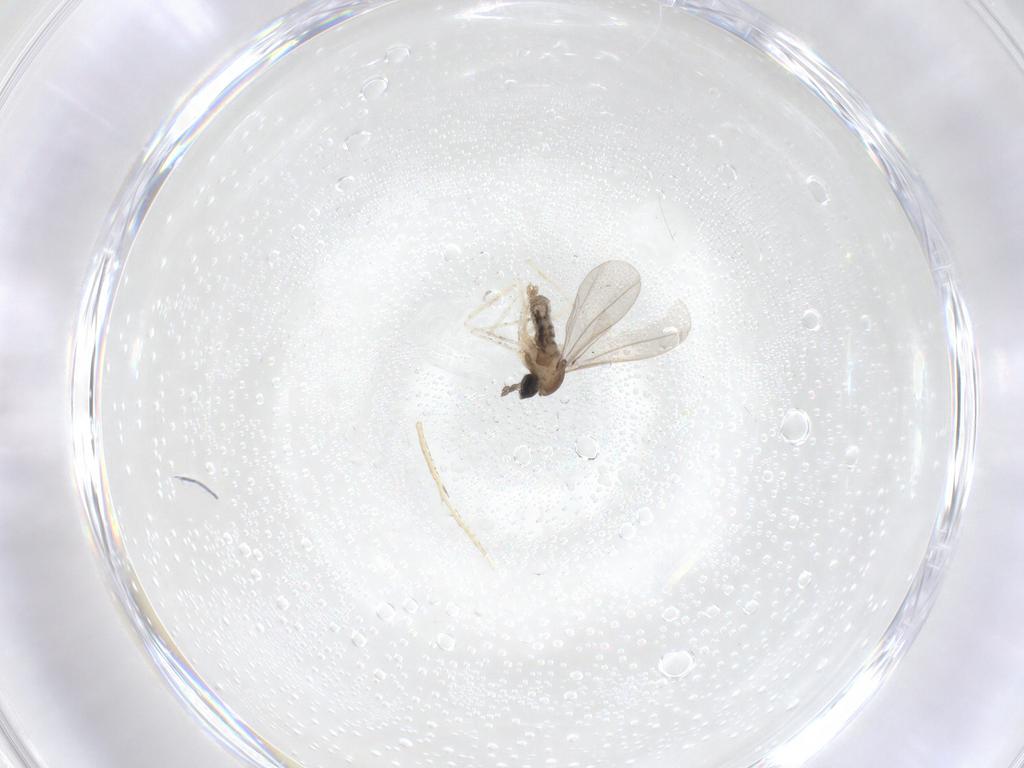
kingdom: Animalia
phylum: Arthropoda
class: Insecta
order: Diptera
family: Cecidomyiidae
